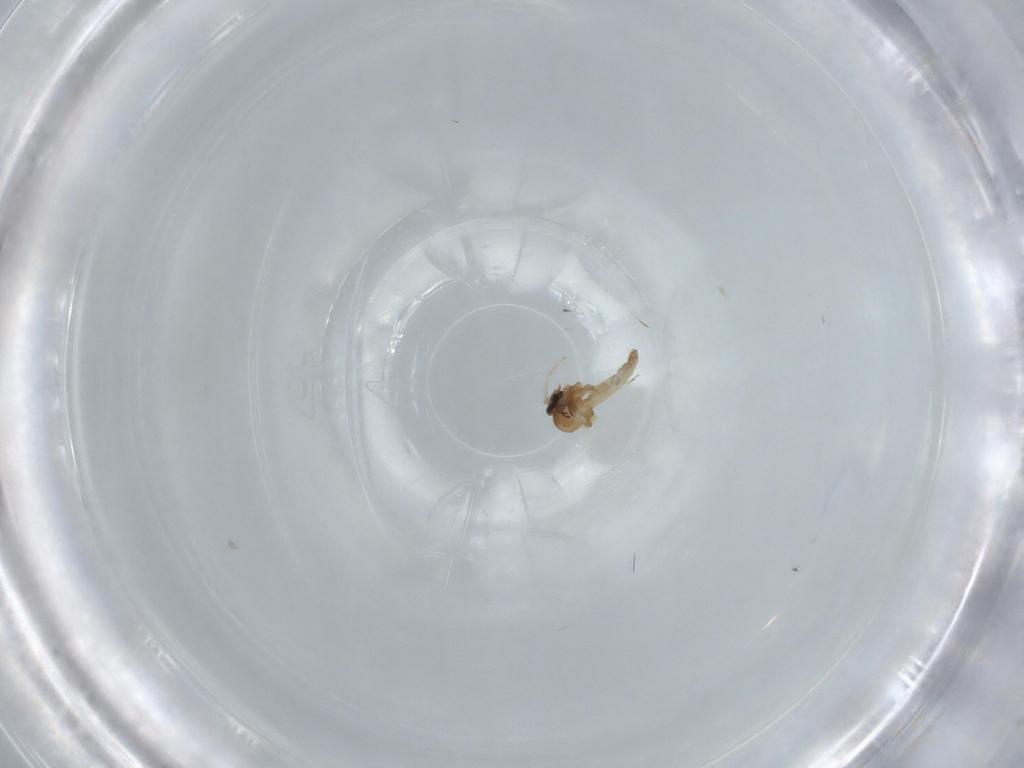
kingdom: Animalia
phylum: Arthropoda
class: Insecta
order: Diptera
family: Ceratopogonidae
